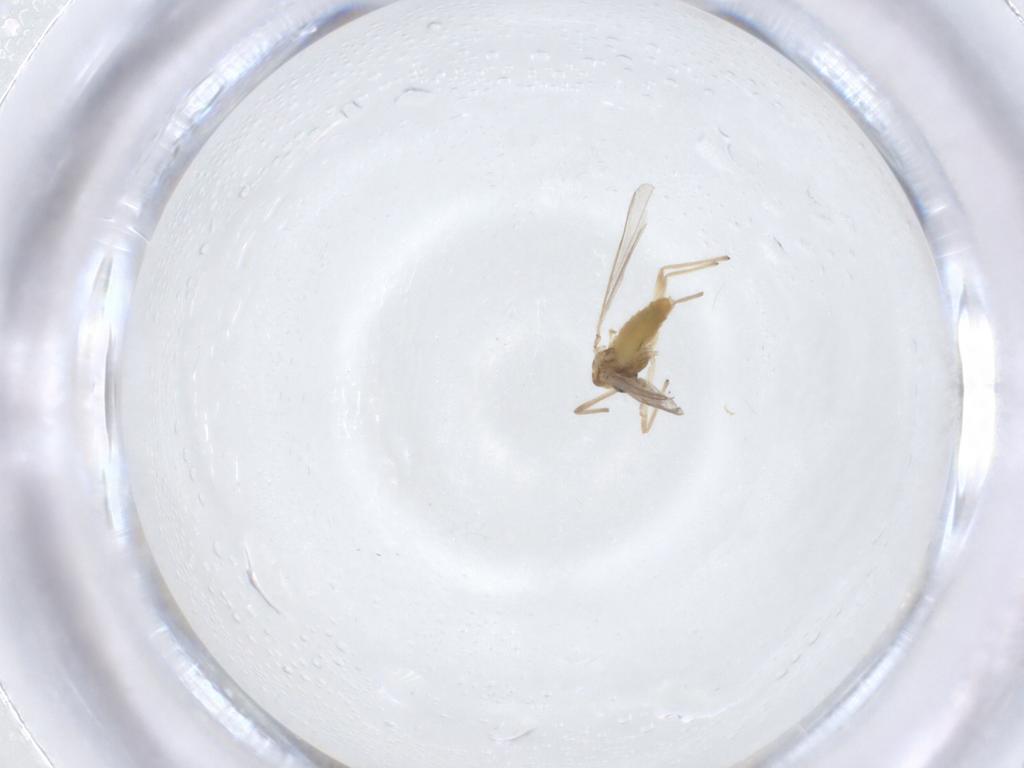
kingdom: Animalia
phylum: Arthropoda
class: Insecta
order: Diptera
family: Chironomidae
